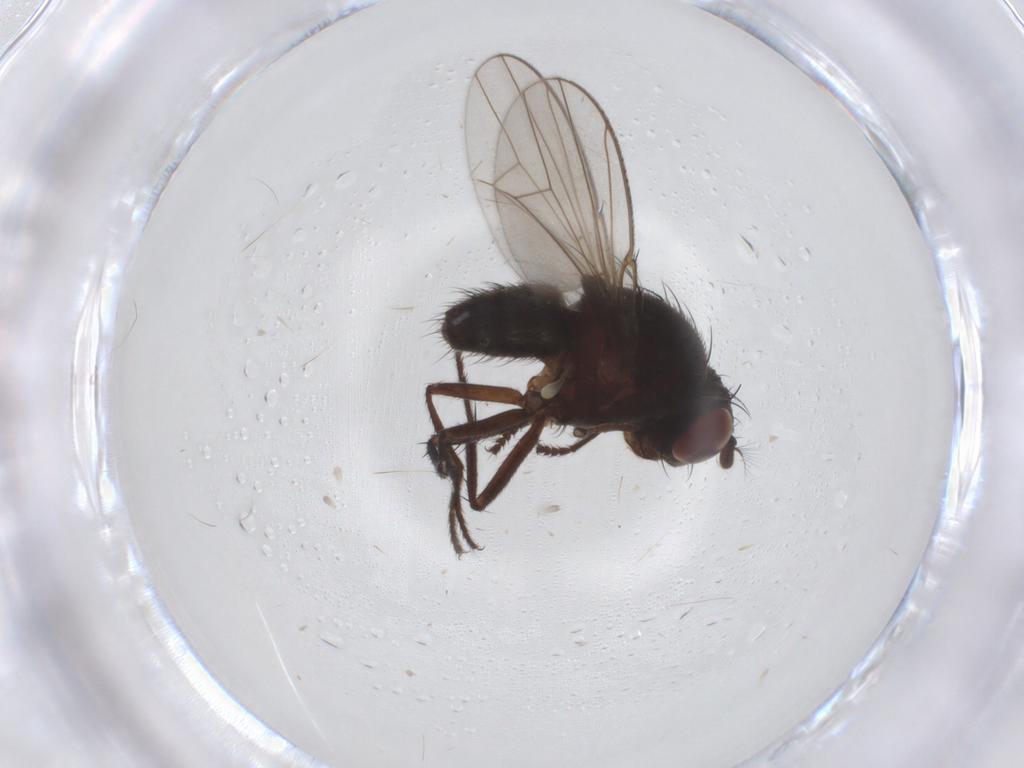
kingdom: Animalia
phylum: Arthropoda
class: Insecta
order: Diptera
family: Ephydridae
